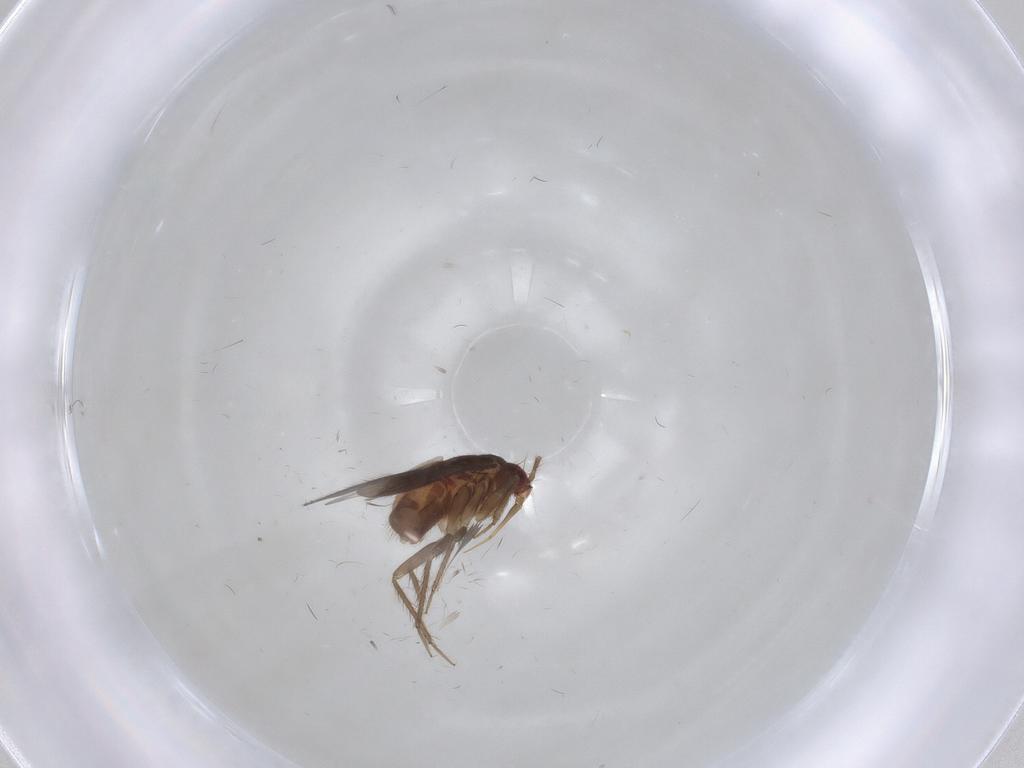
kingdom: Animalia
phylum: Arthropoda
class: Insecta
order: Hemiptera
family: Ceratocombidae
